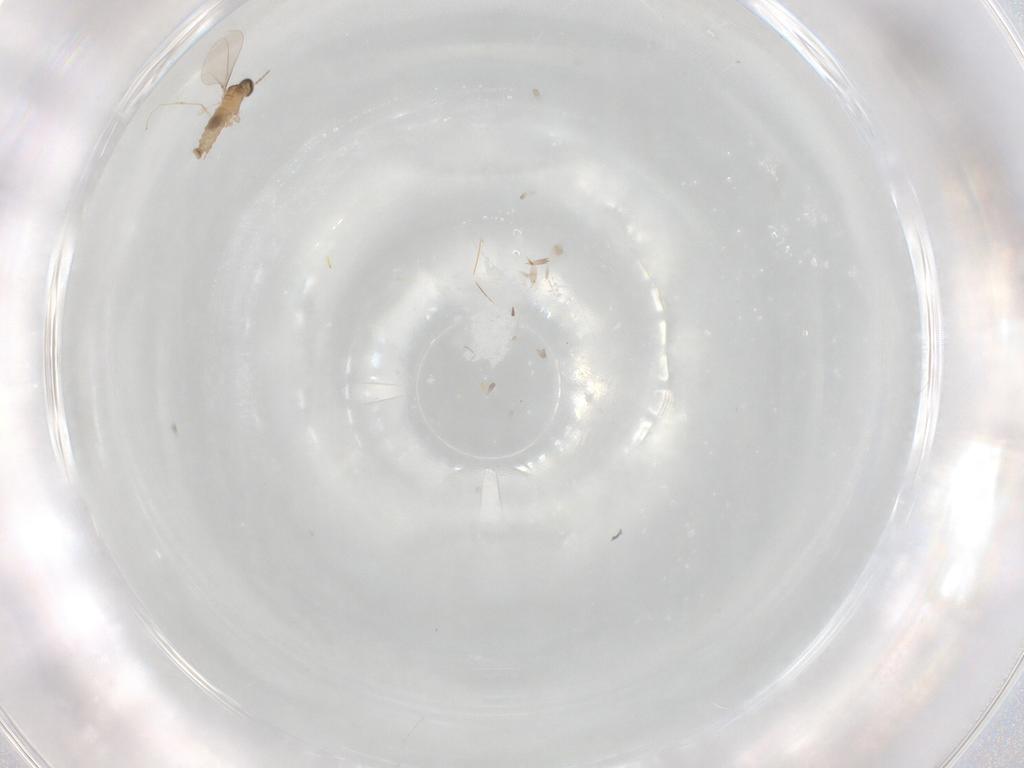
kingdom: Animalia
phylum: Arthropoda
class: Insecta
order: Diptera
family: Cecidomyiidae
